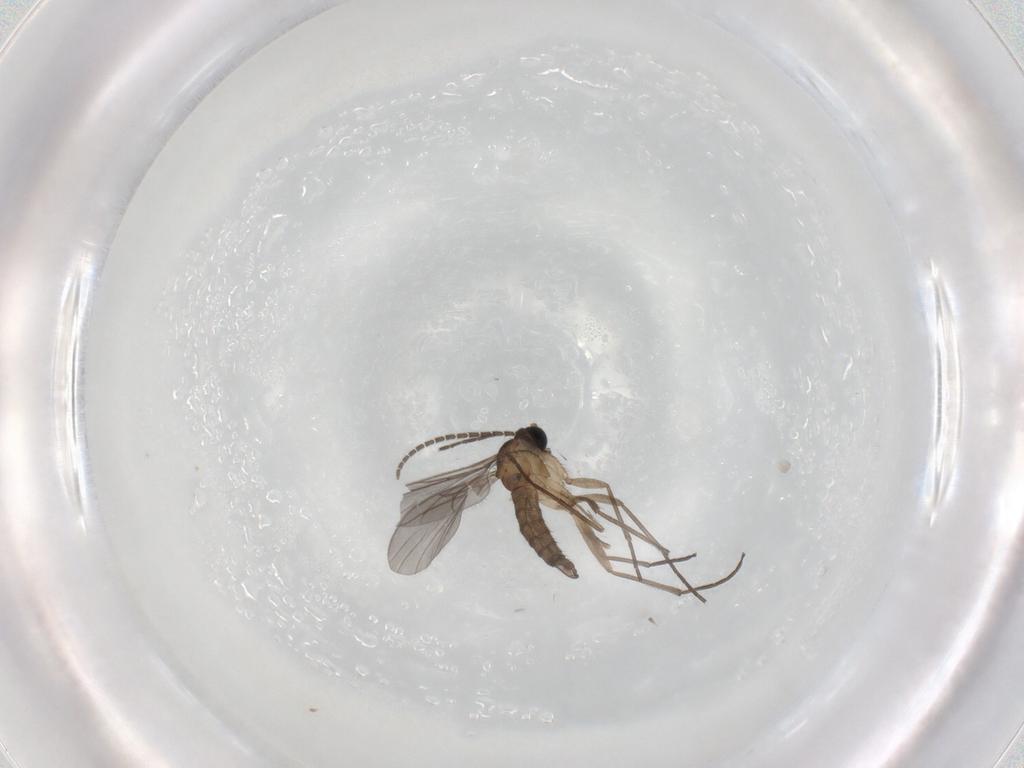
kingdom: Animalia
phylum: Arthropoda
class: Insecta
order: Diptera
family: Sciaridae
